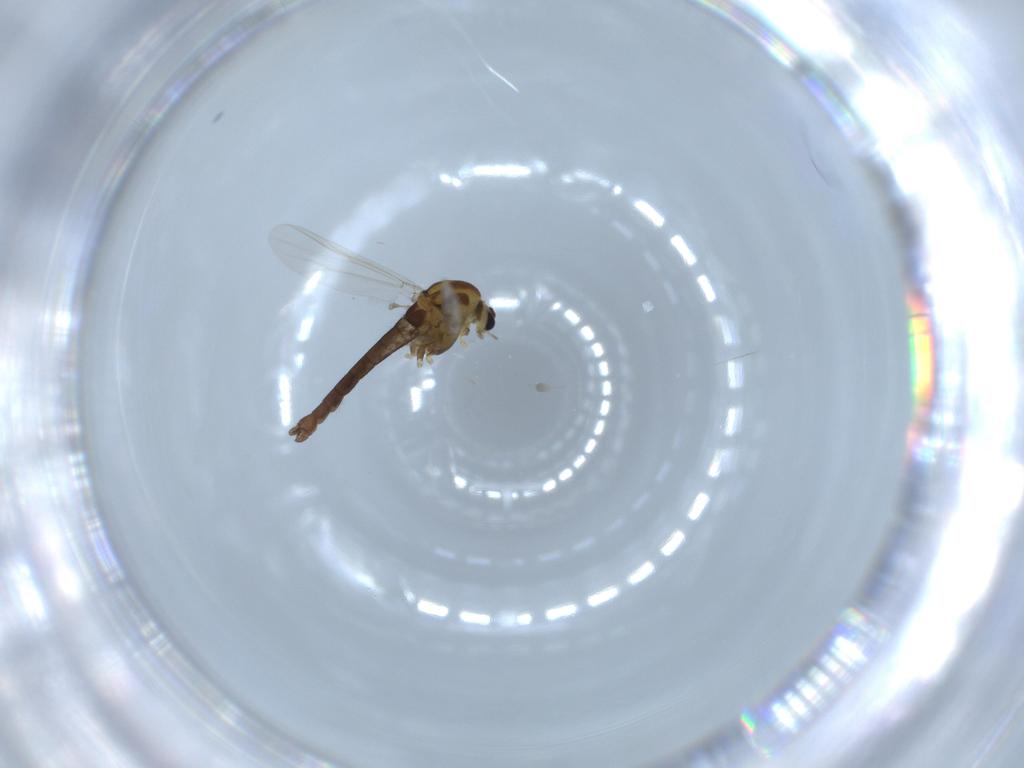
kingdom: Animalia
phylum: Arthropoda
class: Insecta
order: Diptera
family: Chironomidae
